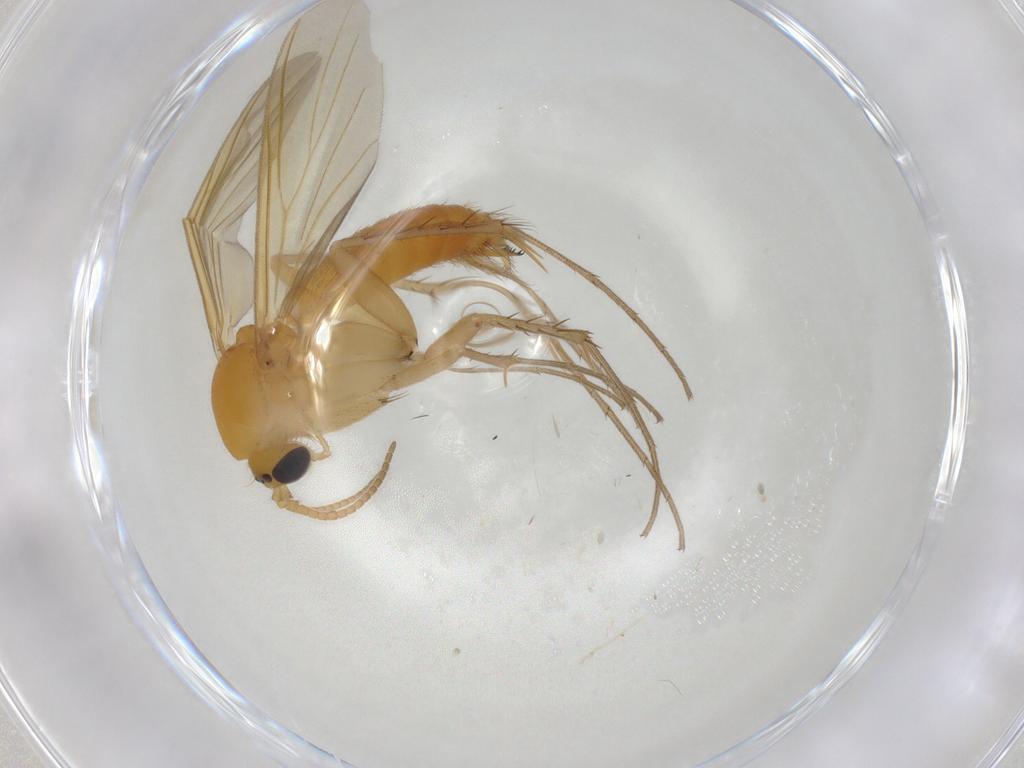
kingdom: Animalia
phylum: Arthropoda
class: Insecta
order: Diptera
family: Mycetophilidae
